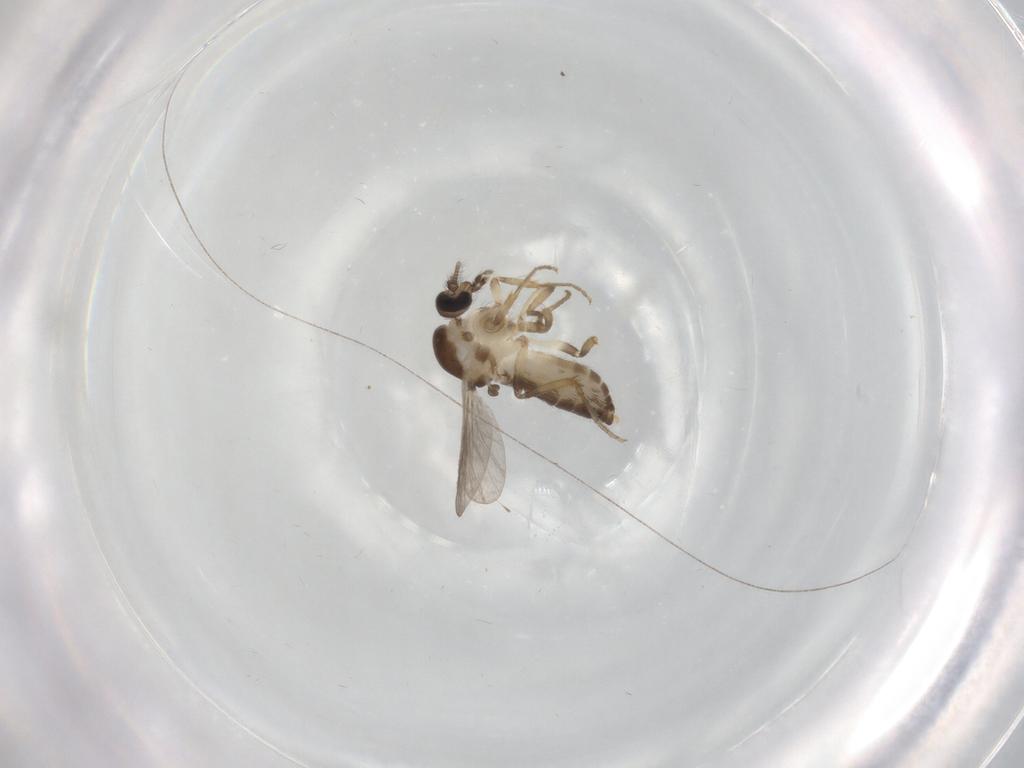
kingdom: Animalia
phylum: Arthropoda
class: Insecta
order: Diptera
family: Ceratopogonidae
